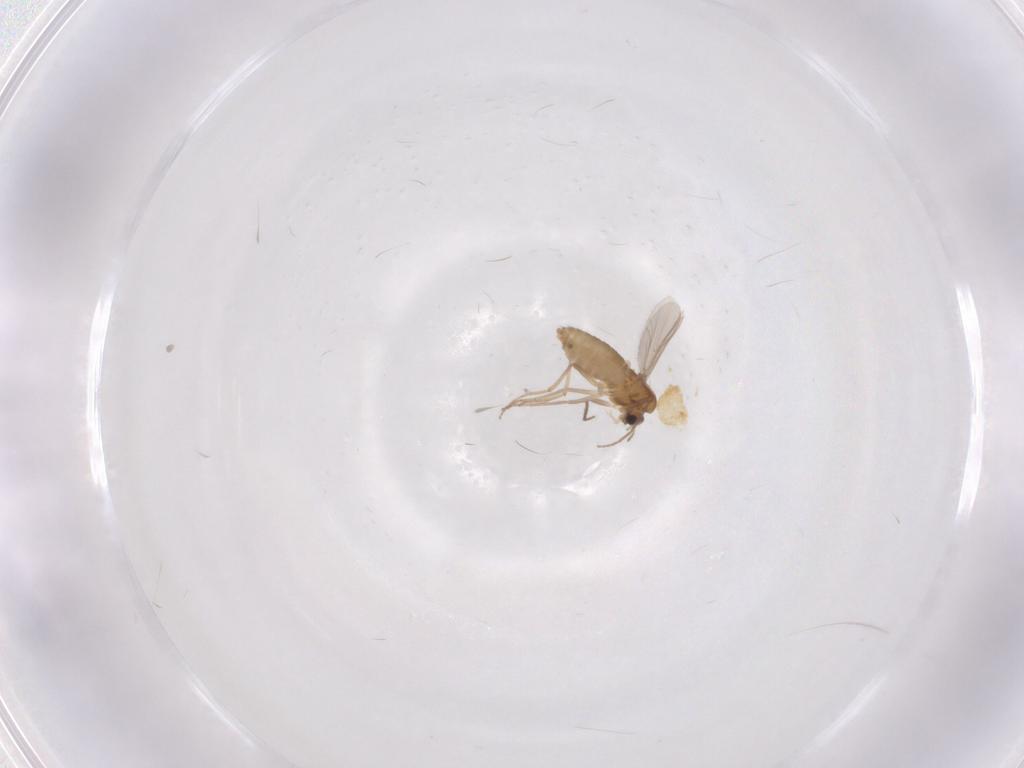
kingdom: Animalia
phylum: Arthropoda
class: Insecta
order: Diptera
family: Chironomidae
